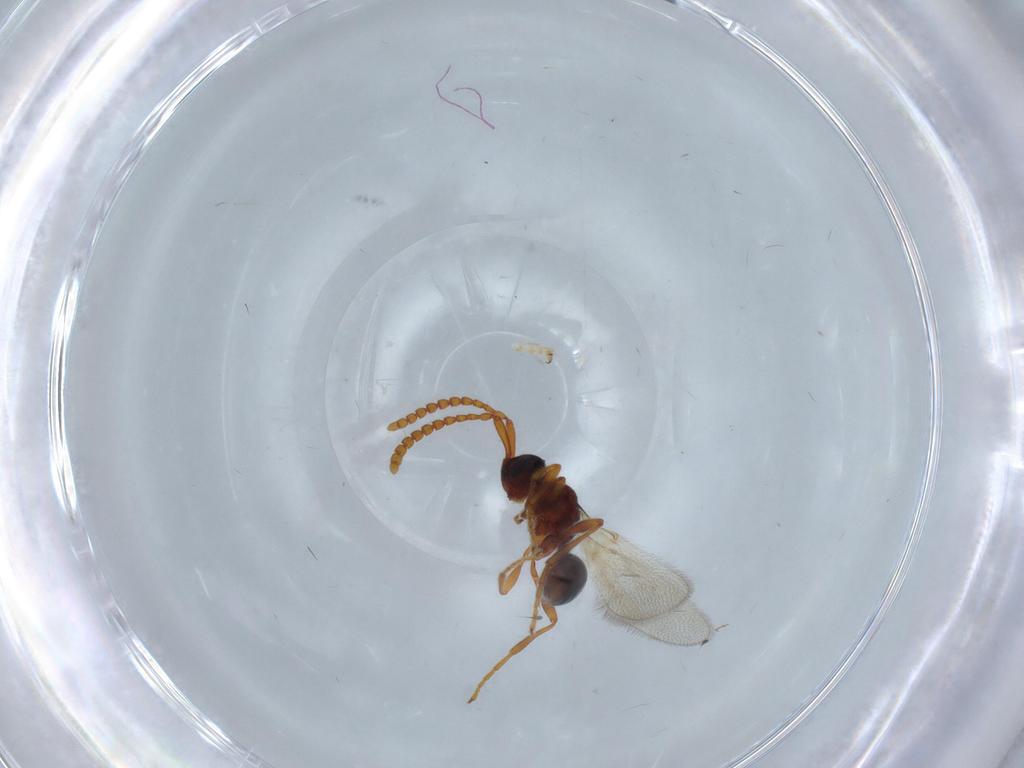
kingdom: Animalia
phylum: Arthropoda
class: Insecta
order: Hymenoptera
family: Diapriidae
